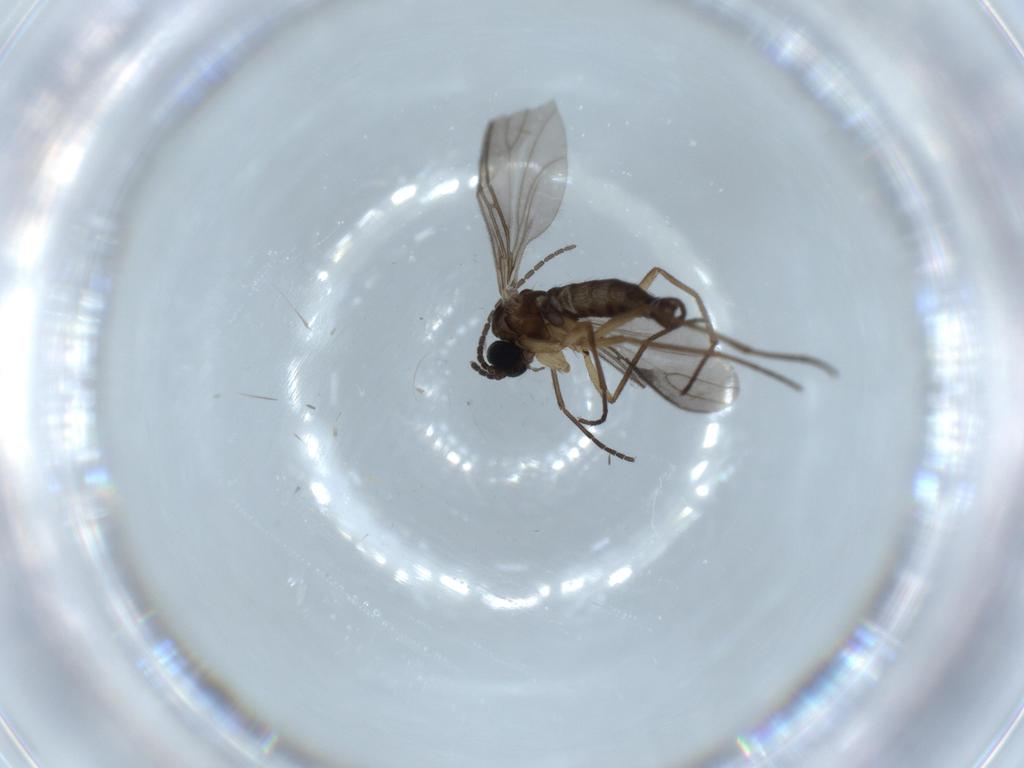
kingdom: Animalia
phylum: Arthropoda
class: Insecta
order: Diptera
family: Sciaridae
